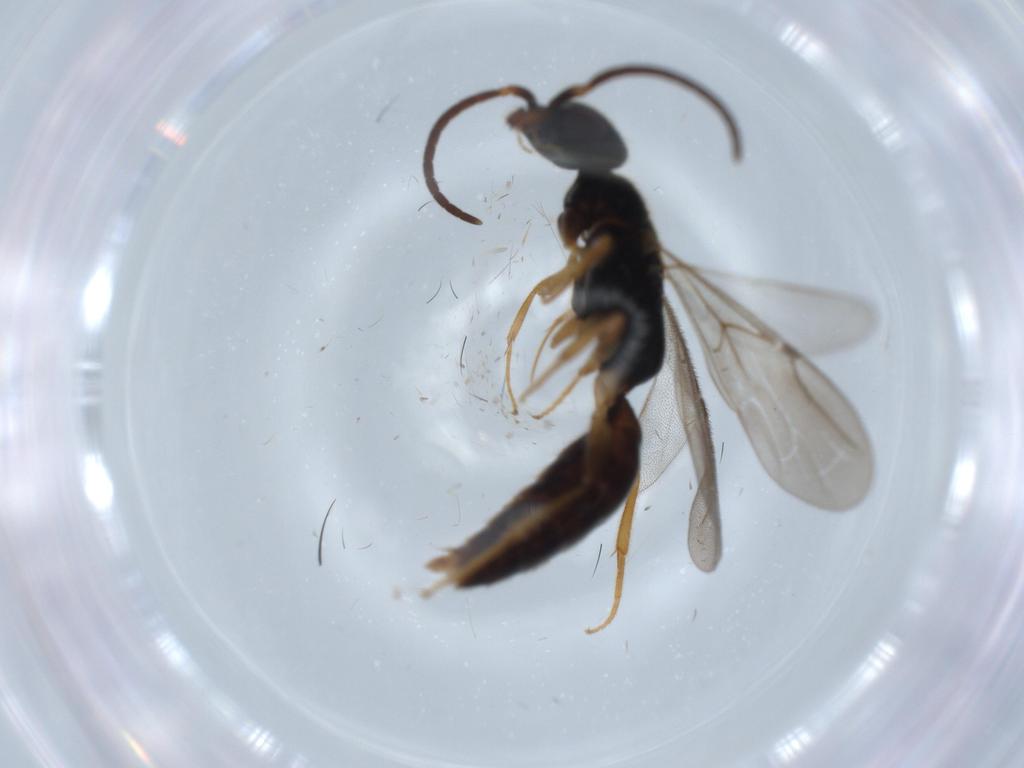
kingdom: Animalia
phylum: Arthropoda
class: Insecta
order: Hymenoptera
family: Bethylidae
